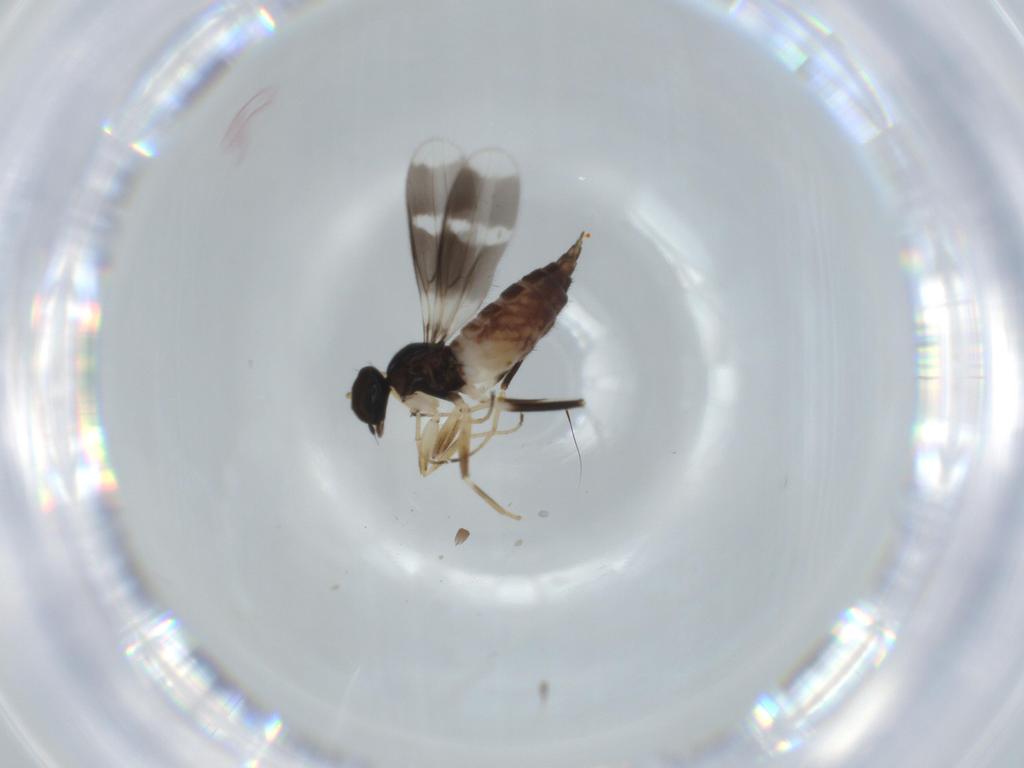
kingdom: Animalia
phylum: Arthropoda
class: Insecta
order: Diptera
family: Hybotidae
